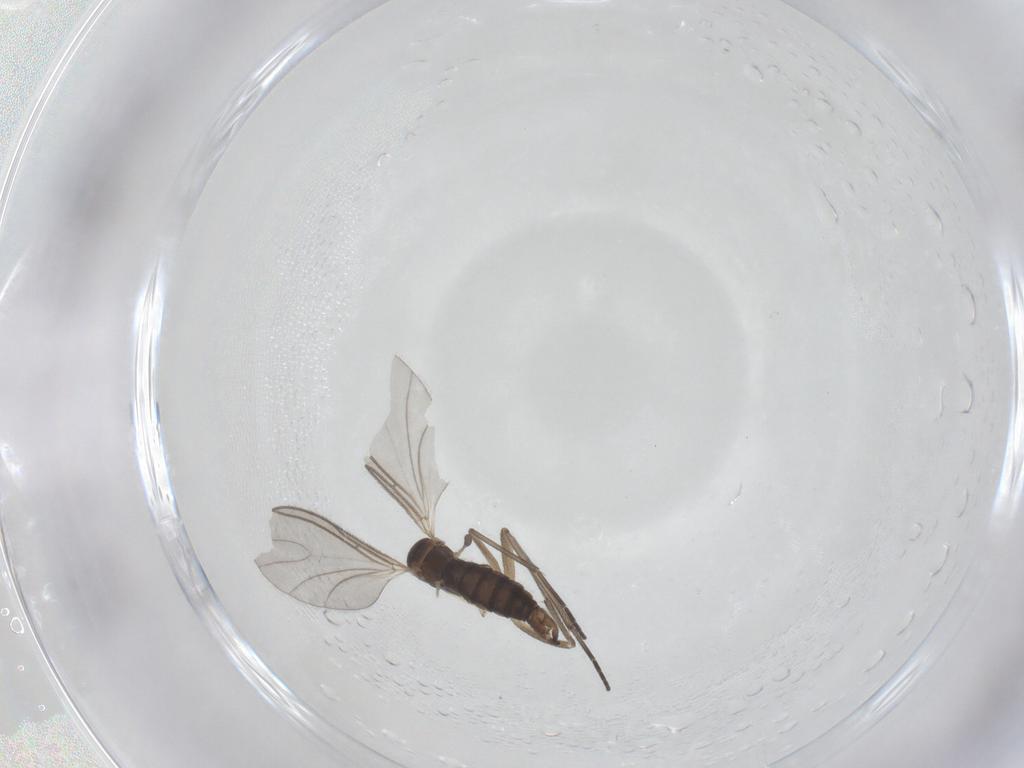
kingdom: Animalia
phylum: Arthropoda
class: Insecta
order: Diptera
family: Sciaridae
